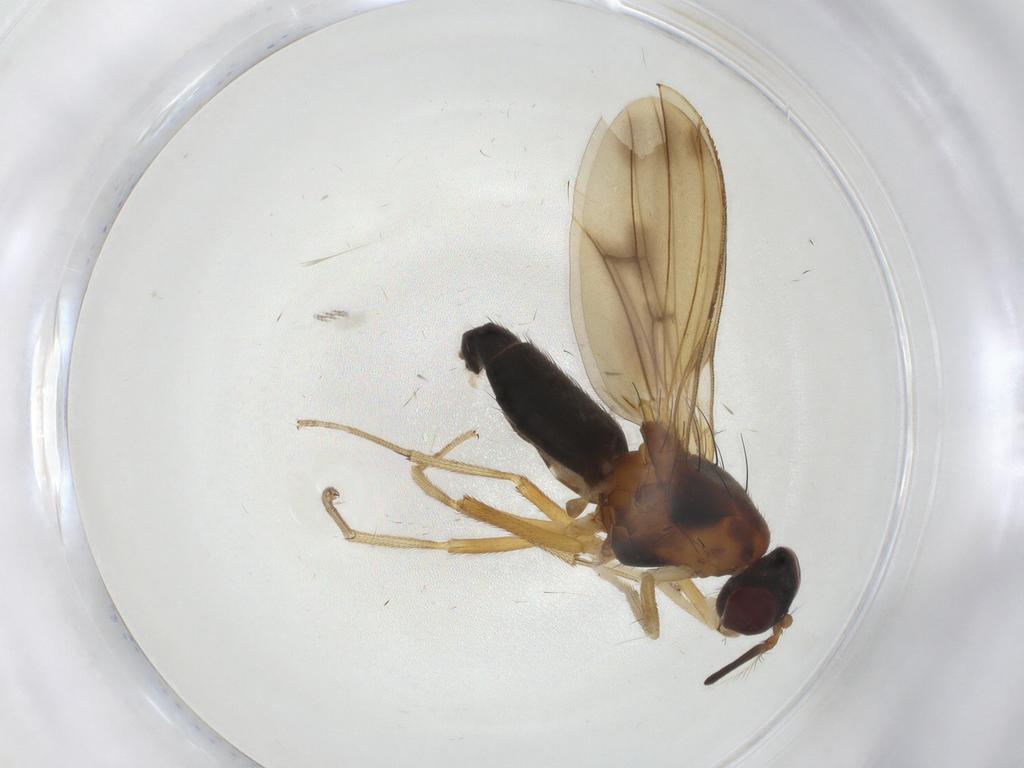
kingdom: Animalia
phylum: Arthropoda
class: Insecta
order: Diptera
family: Lauxaniidae
